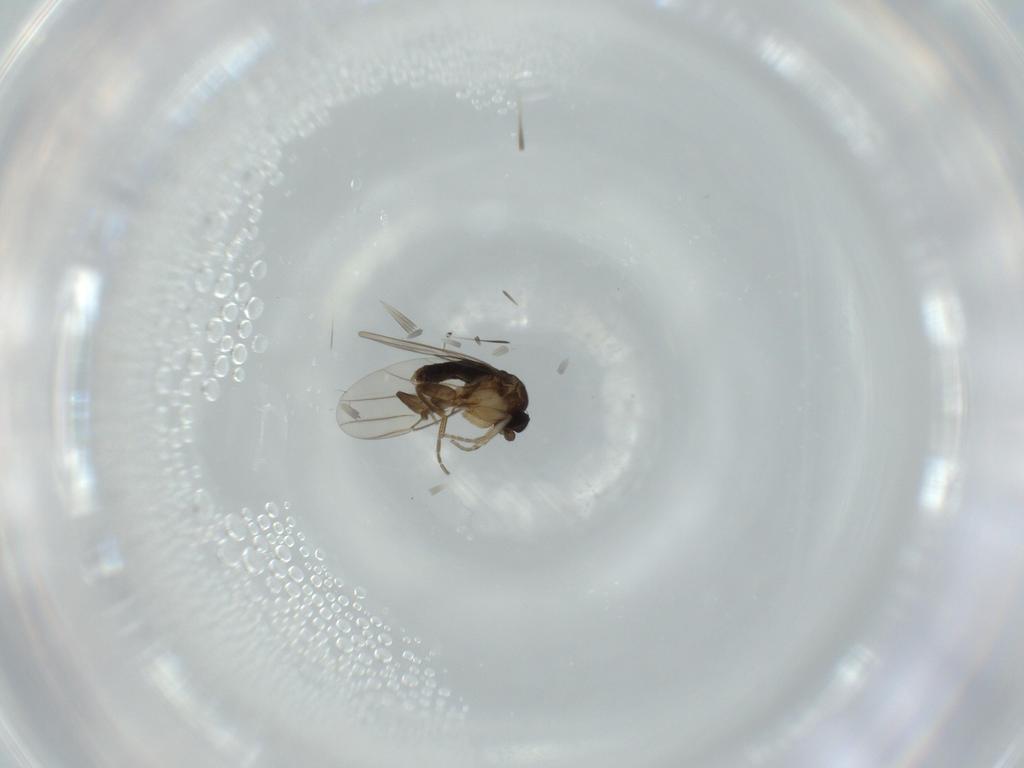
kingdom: Animalia
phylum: Arthropoda
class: Insecta
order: Diptera
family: Phoridae
